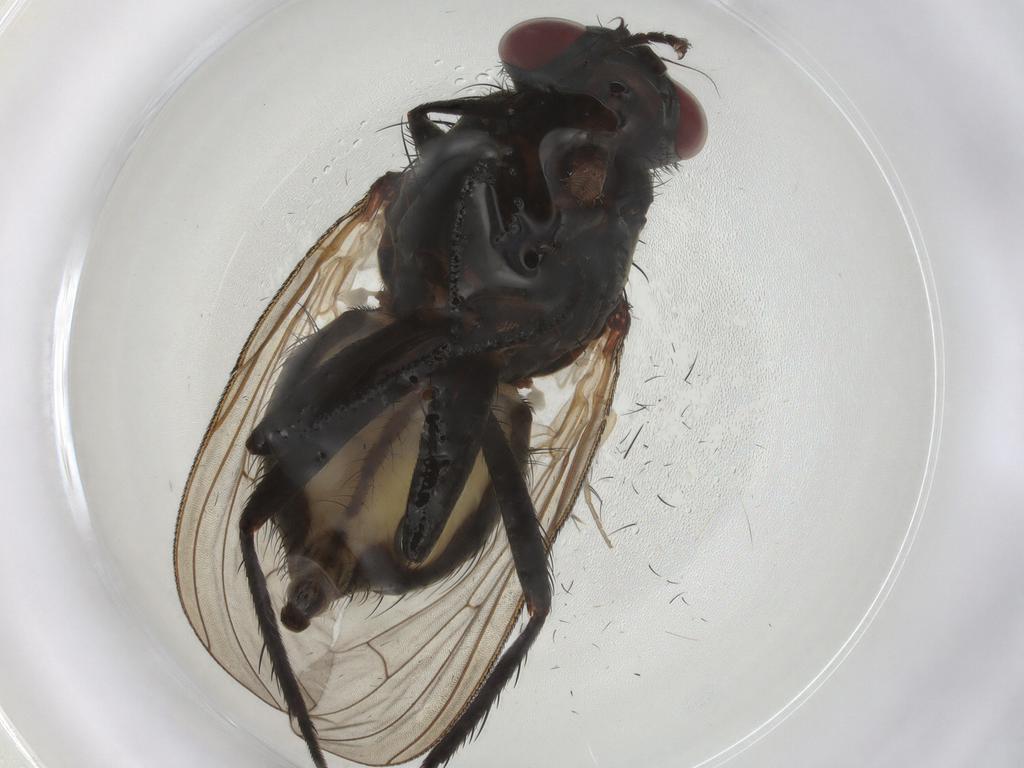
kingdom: Animalia
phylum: Arthropoda
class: Insecta
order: Diptera
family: Anthomyiidae
